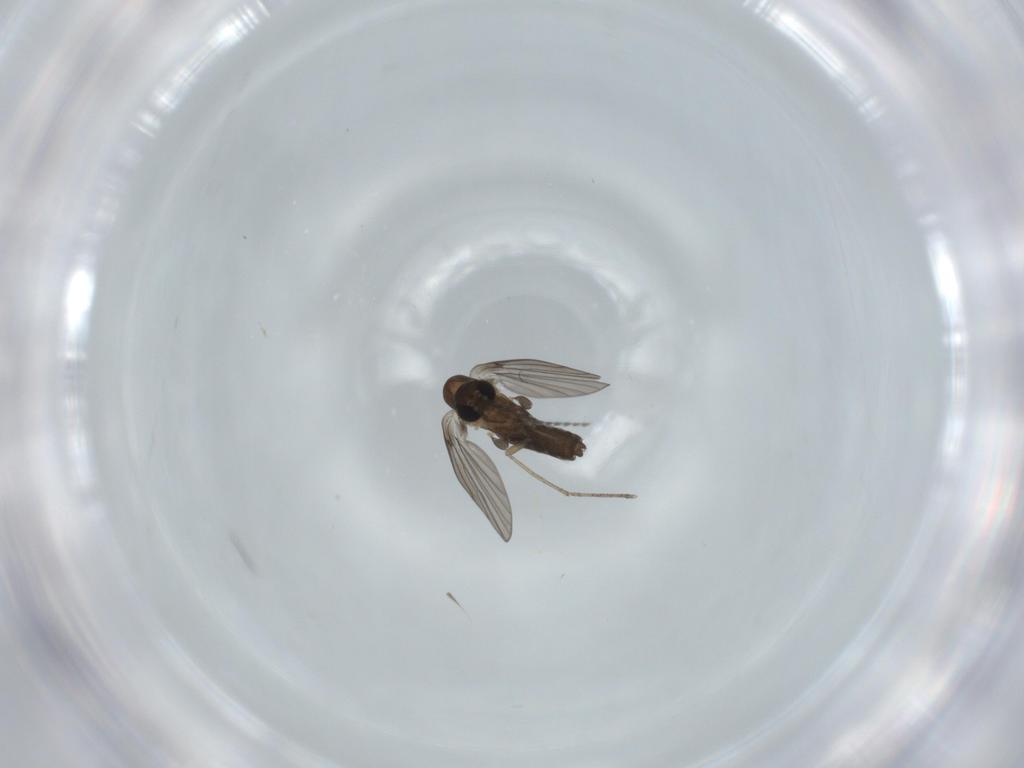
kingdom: Animalia
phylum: Arthropoda
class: Insecta
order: Diptera
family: Psychodidae
